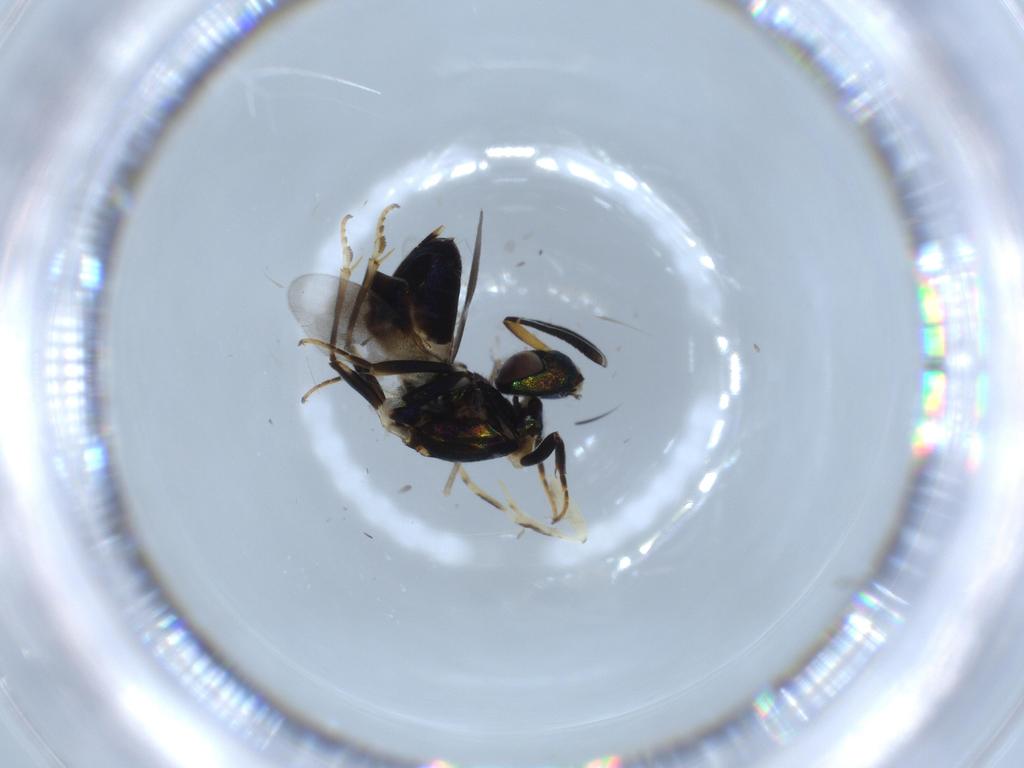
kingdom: Animalia
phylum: Arthropoda
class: Insecta
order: Hymenoptera
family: Eupelmidae
